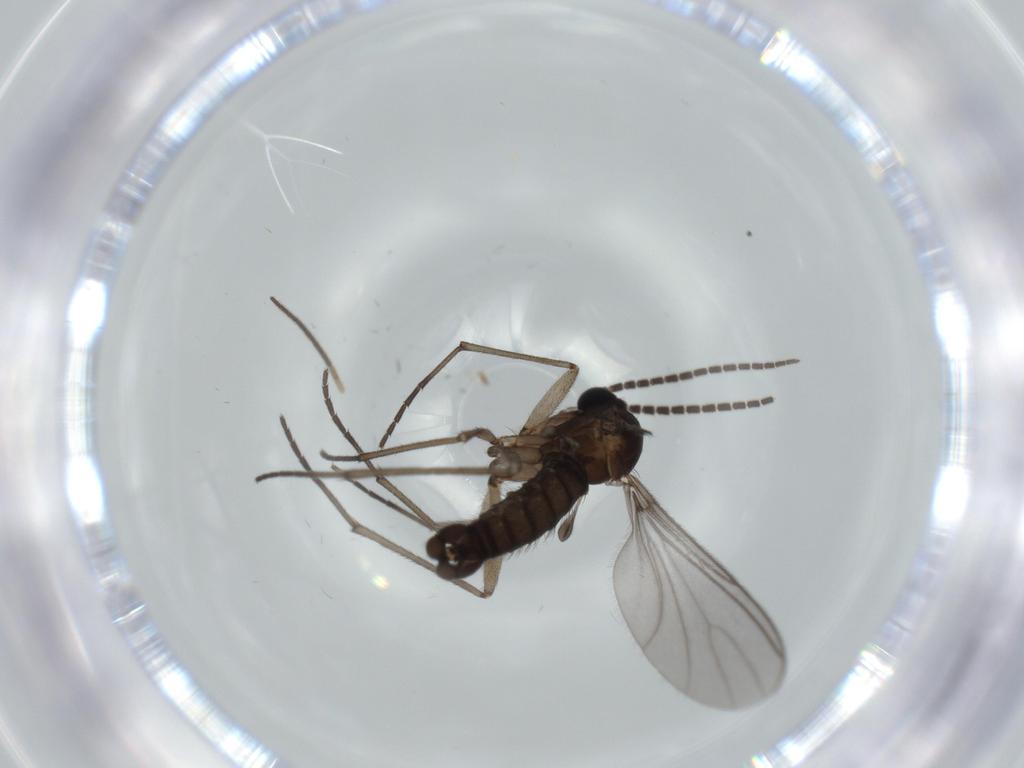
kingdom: Animalia
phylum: Arthropoda
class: Insecta
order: Diptera
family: Sciaridae
